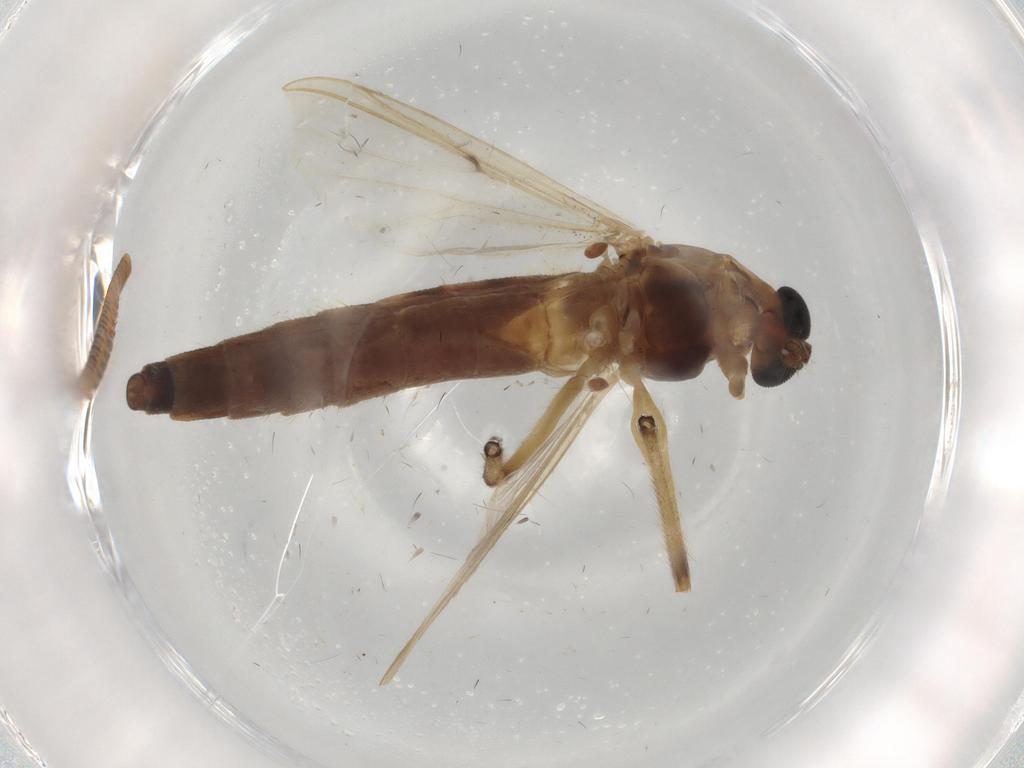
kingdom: Animalia
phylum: Arthropoda
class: Insecta
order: Diptera
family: Chironomidae
